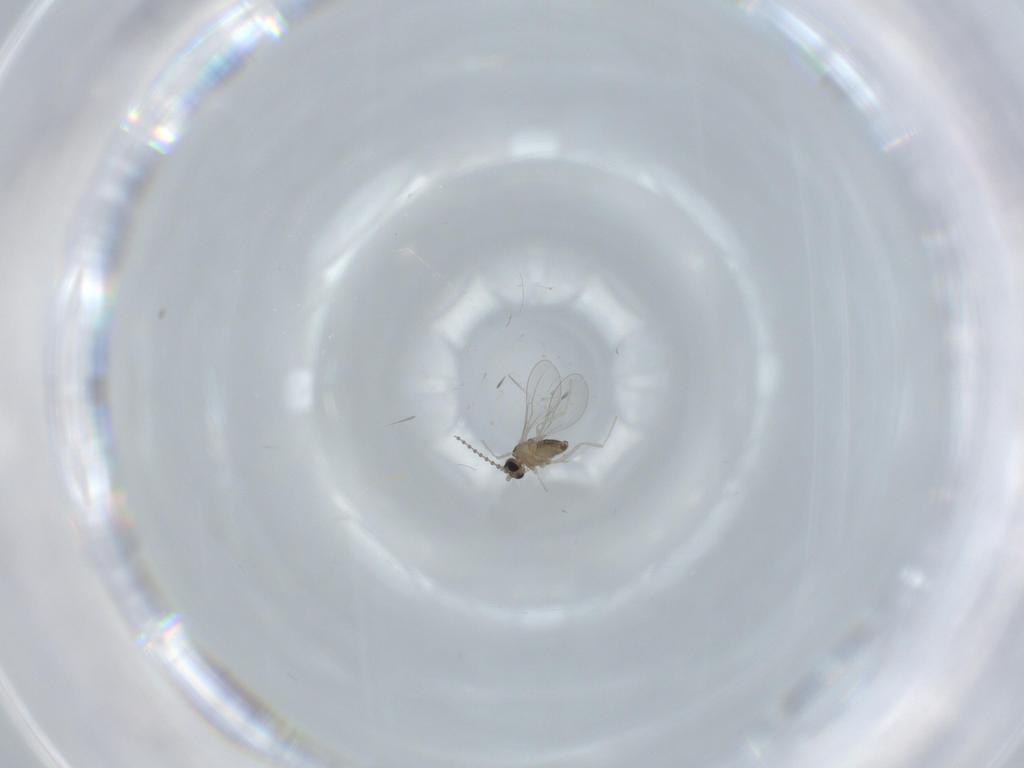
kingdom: Animalia
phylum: Arthropoda
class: Insecta
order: Diptera
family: Cecidomyiidae
